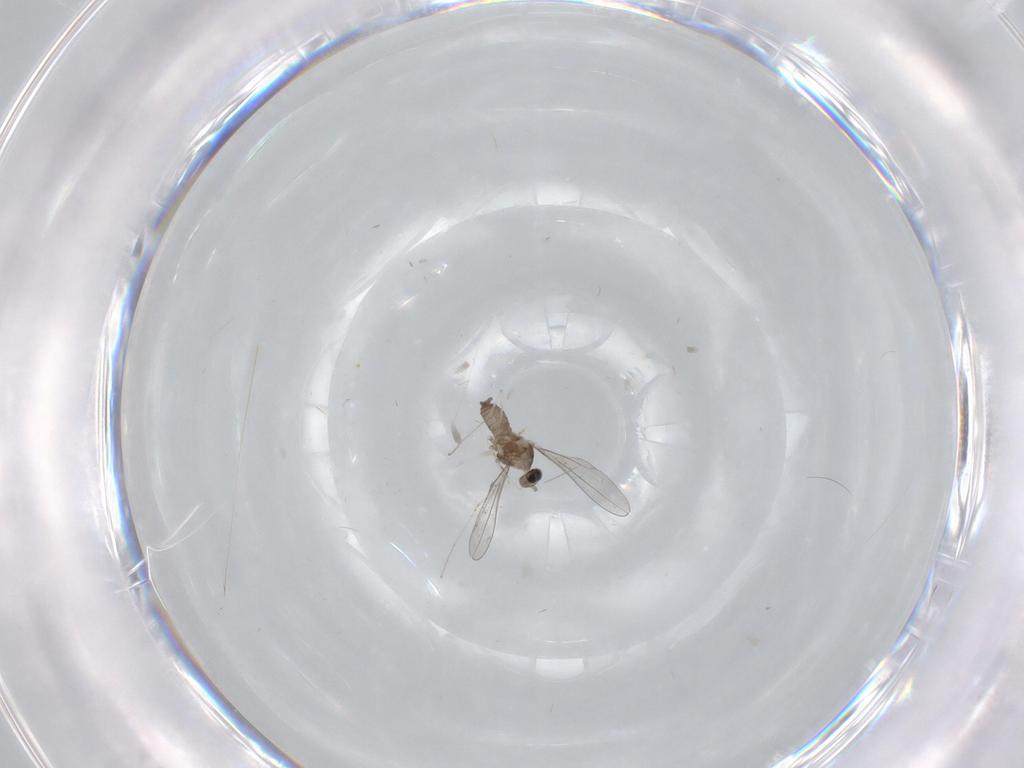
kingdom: Animalia
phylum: Arthropoda
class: Insecta
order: Diptera
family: Cecidomyiidae
